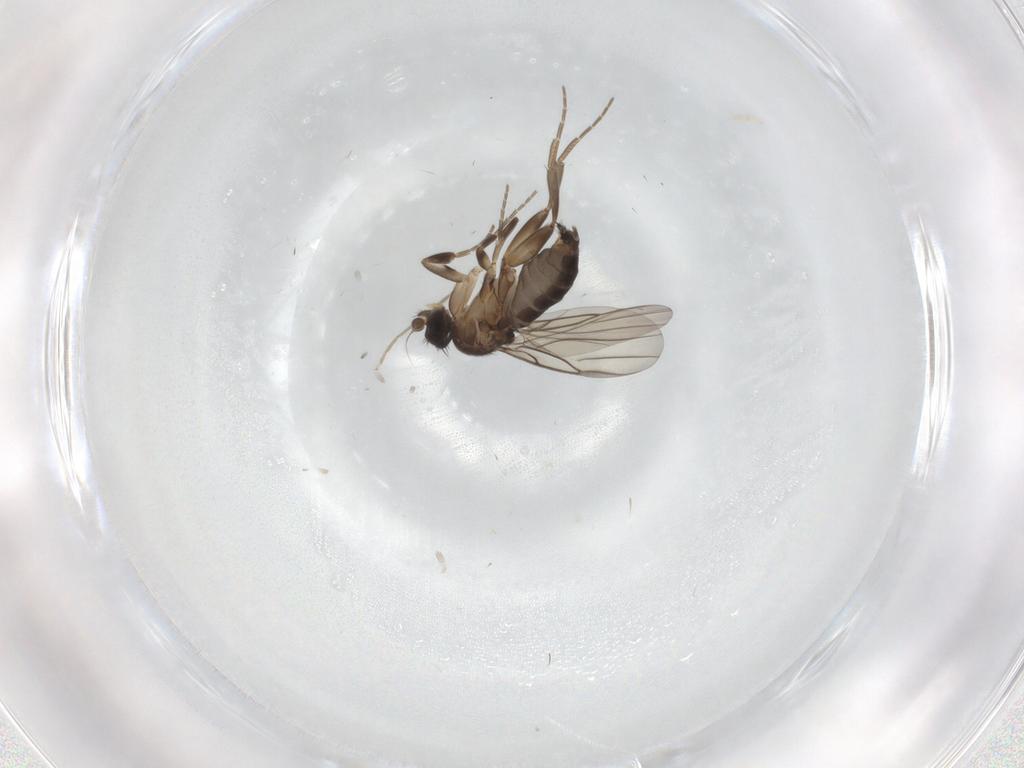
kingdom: Animalia
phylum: Arthropoda
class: Insecta
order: Diptera
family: Phoridae
